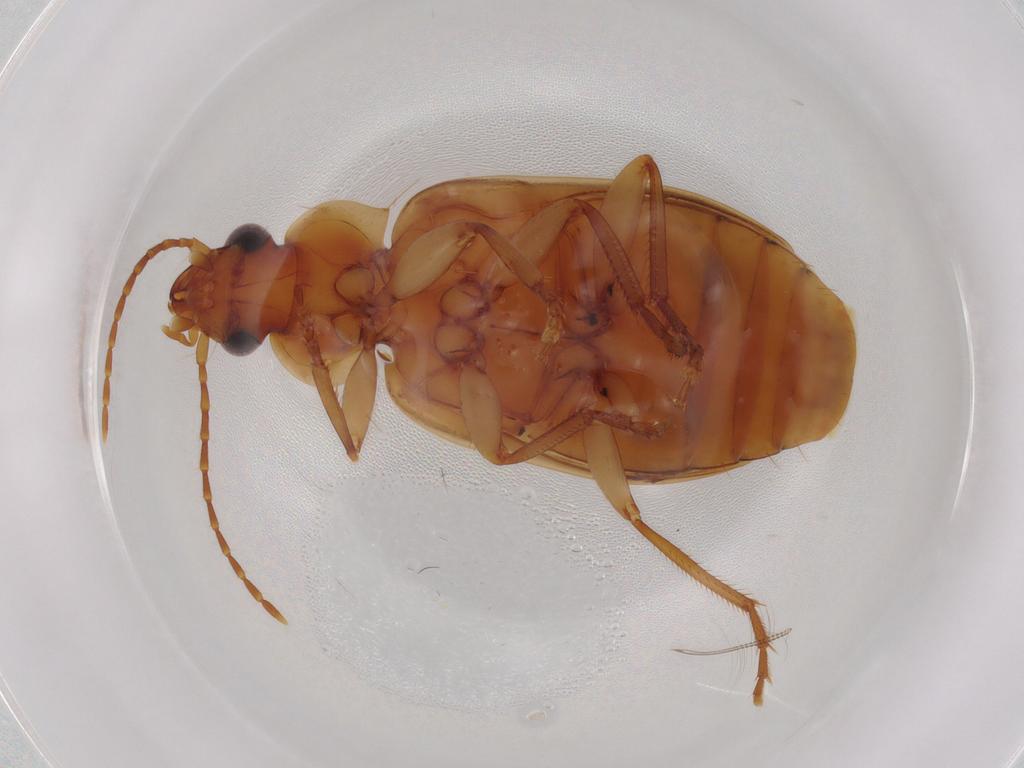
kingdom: Animalia
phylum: Arthropoda
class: Insecta
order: Coleoptera
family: Carabidae
